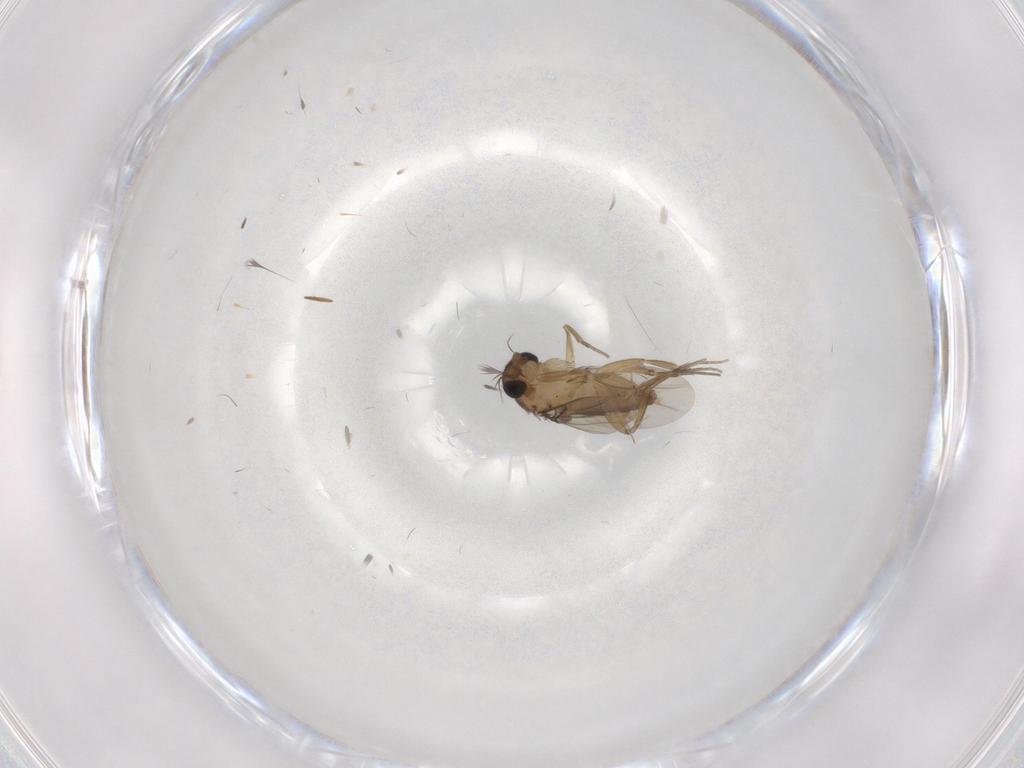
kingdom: Animalia
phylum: Arthropoda
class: Insecta
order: Diptera
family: Phoridae
